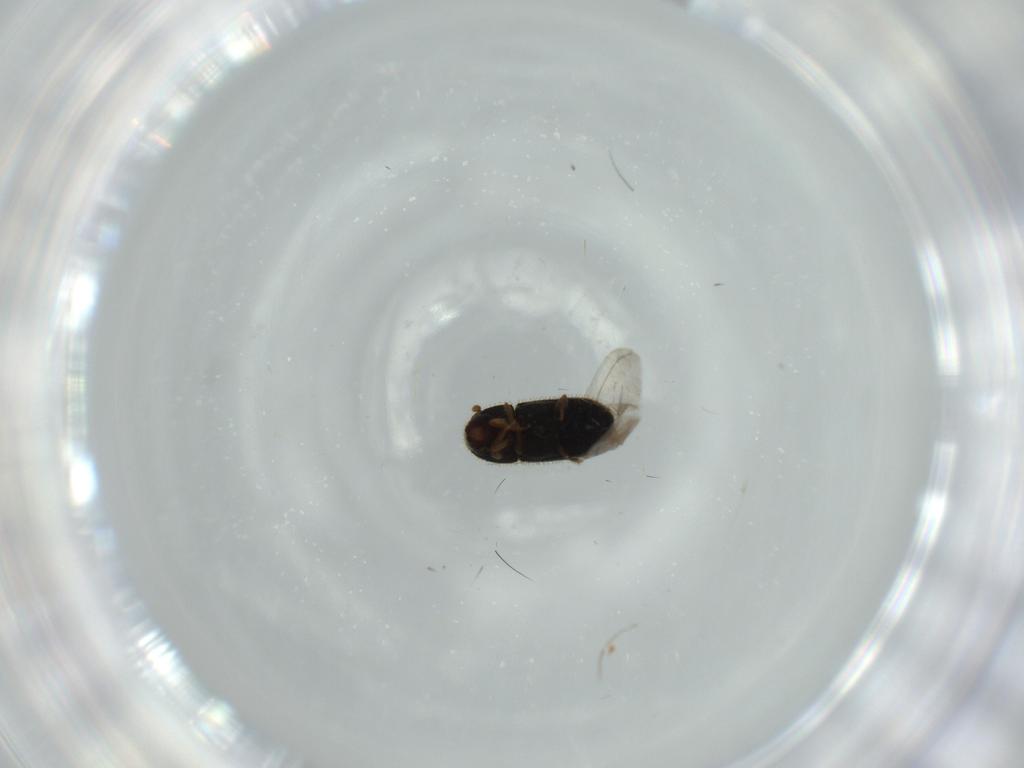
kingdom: Animalia
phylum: Arthropoda
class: Insecta
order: Coleoptera
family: Curculionidae
